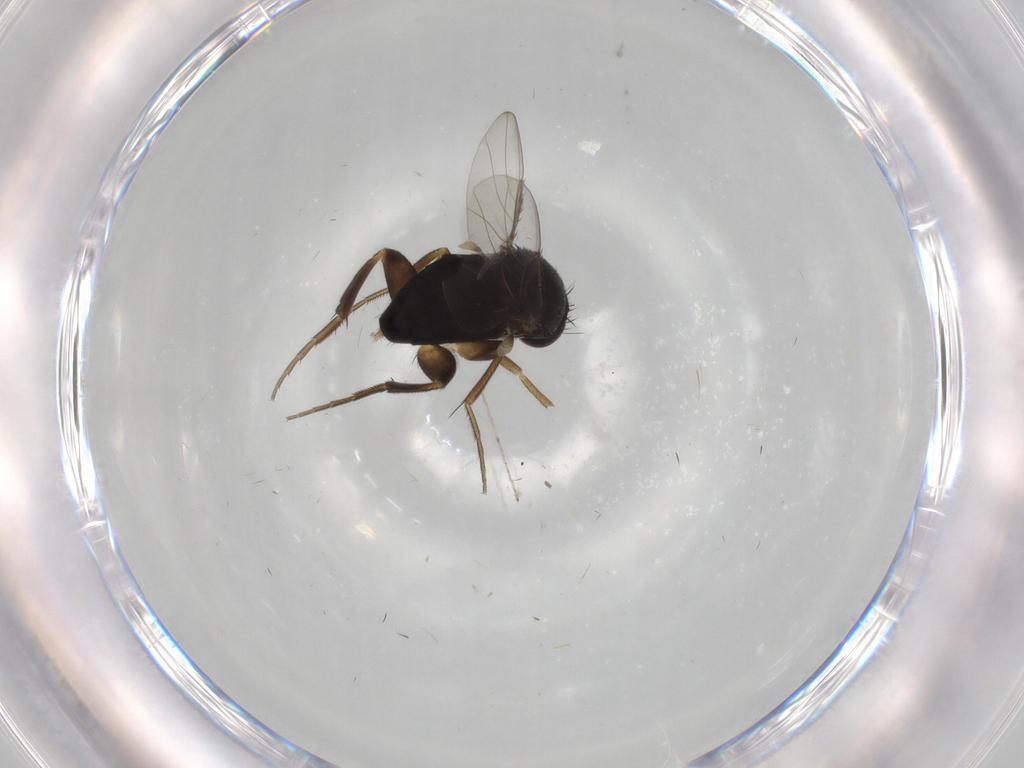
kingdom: Animalia
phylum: Arthropoda
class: Insecta
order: Diptera
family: Phoridae
